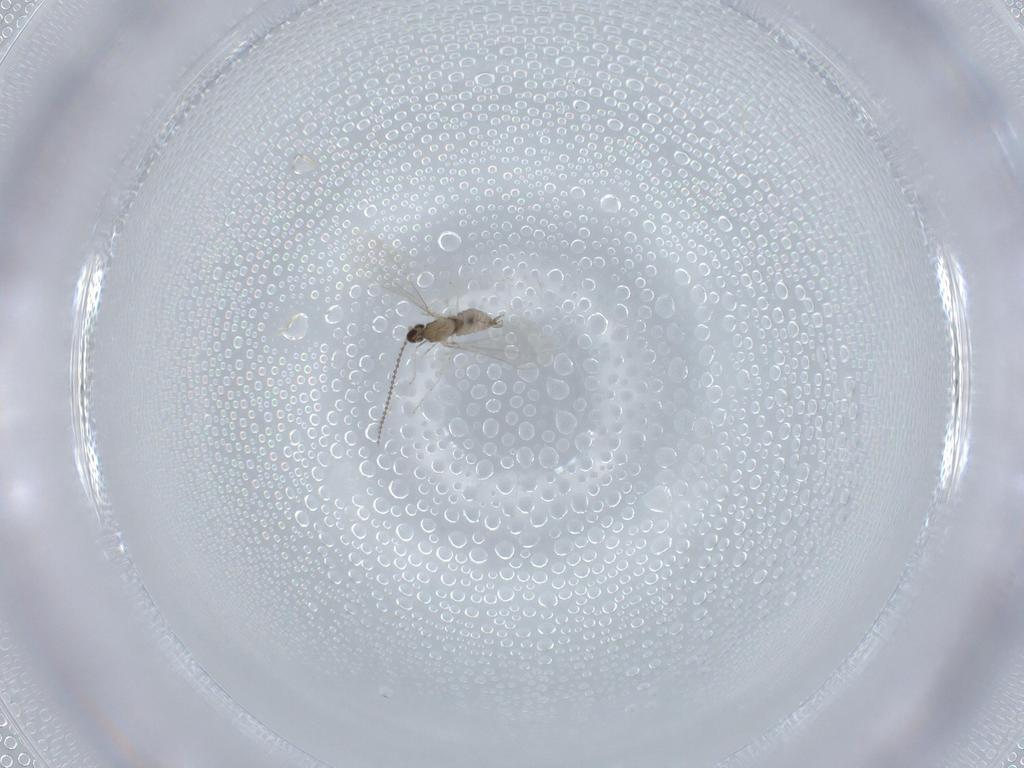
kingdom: Animalia
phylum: Arthropoda
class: Insecta
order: Diptera
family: Cecidomyiidae
